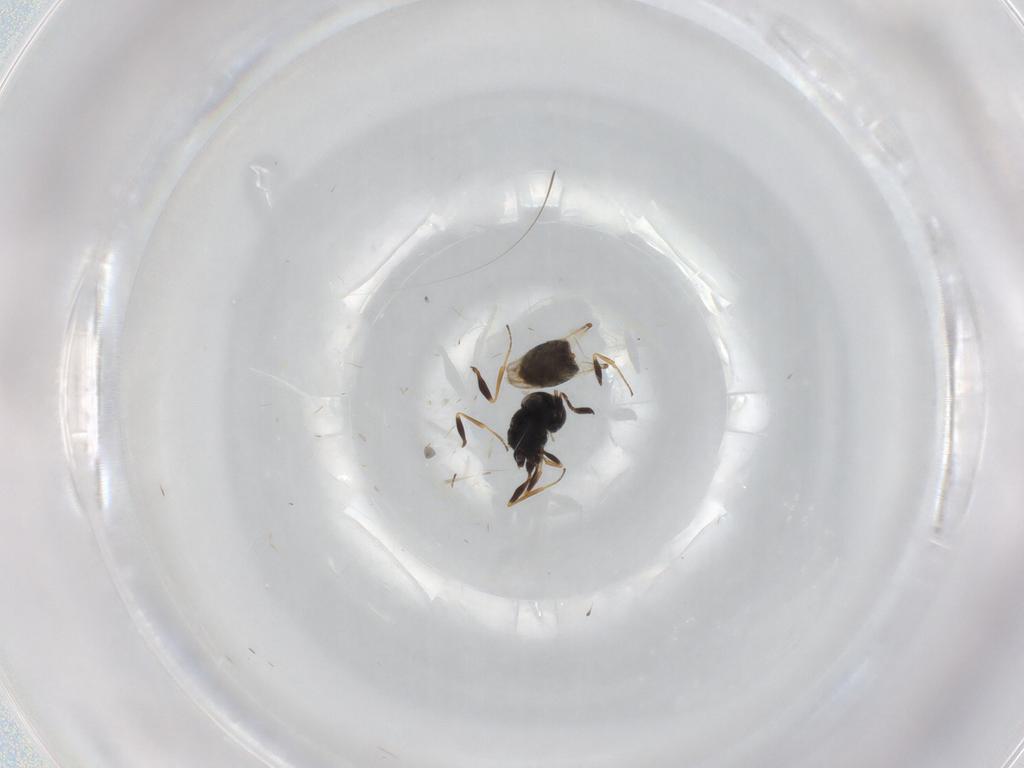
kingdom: Animalia
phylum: Arthropoda
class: Insecta
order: Hymenoptera
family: Scelionidae
